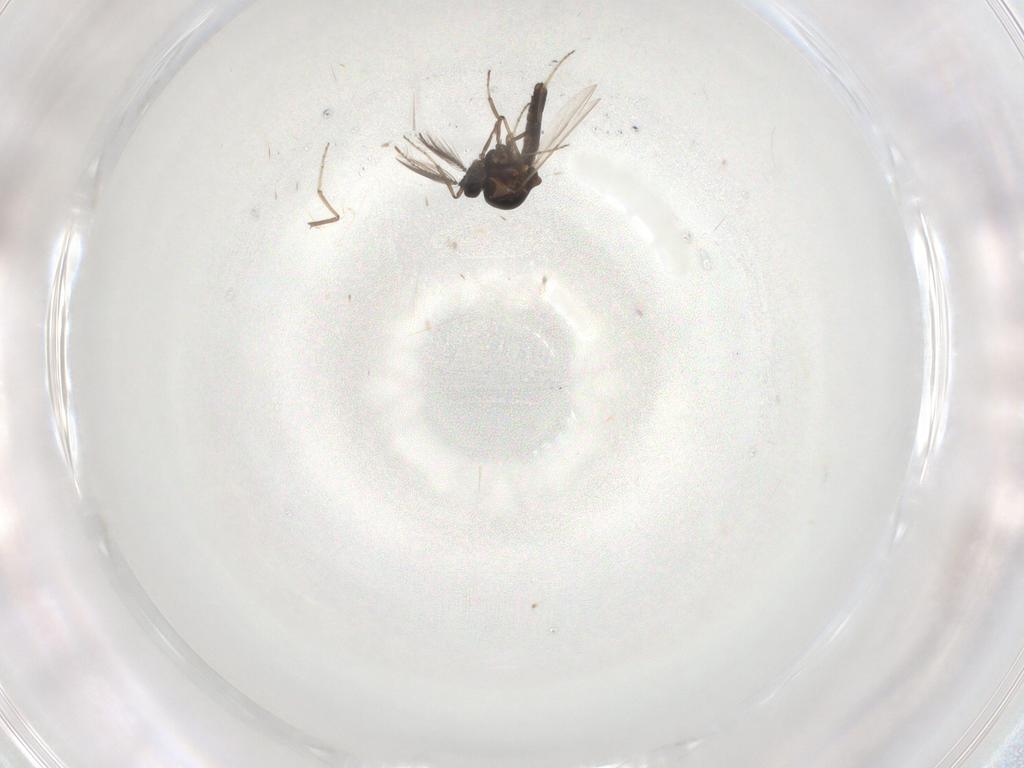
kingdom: Animalia
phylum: Arthropoda
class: Insecta
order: Diptera
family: Ceratopogonidae
